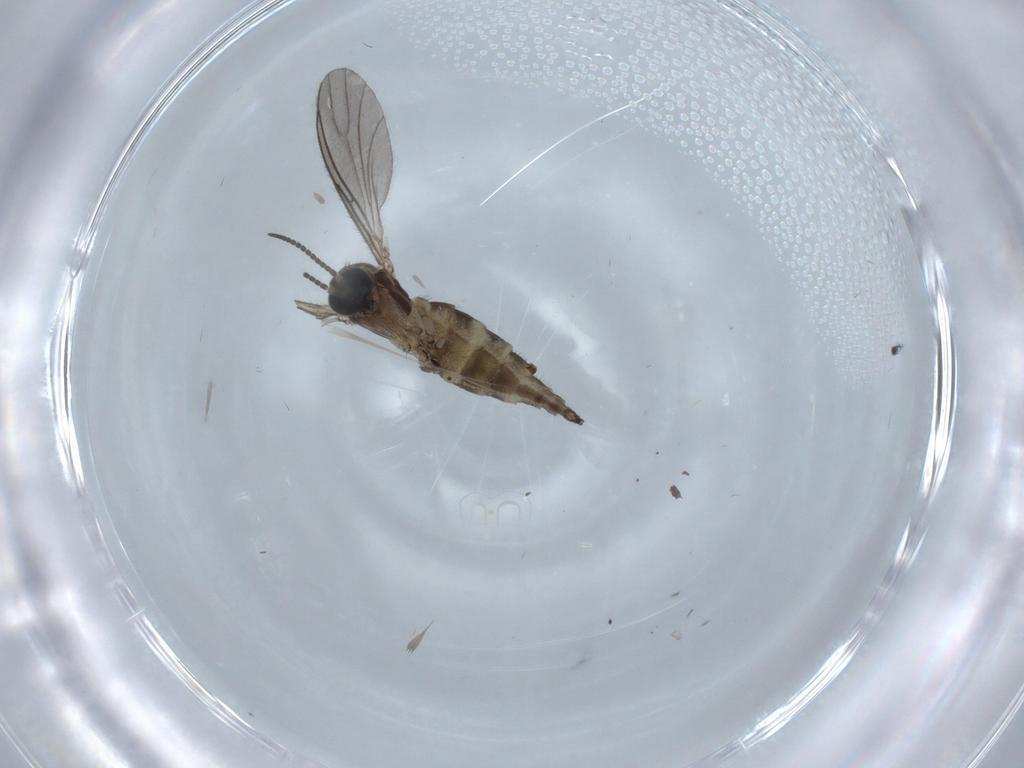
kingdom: Animalia
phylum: Arthropoda
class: Insecta
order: Diptera
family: Sciaridae
